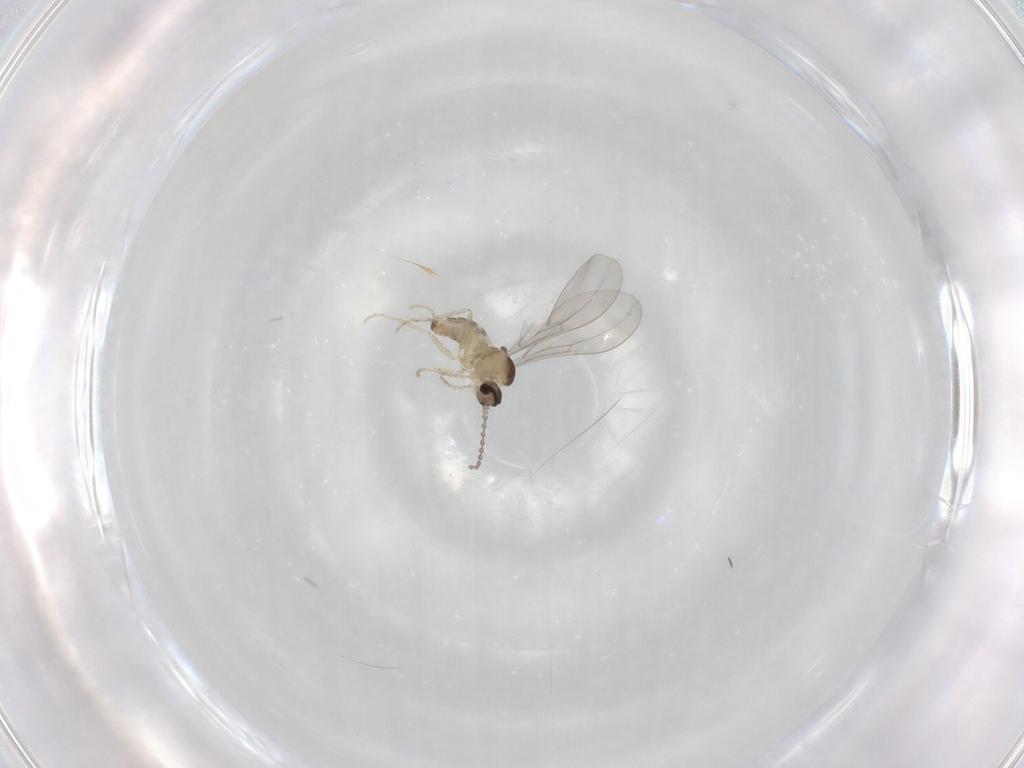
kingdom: Animalia
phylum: Arthropoda
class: Insecta
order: Diptera
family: Cecidomyiidae
